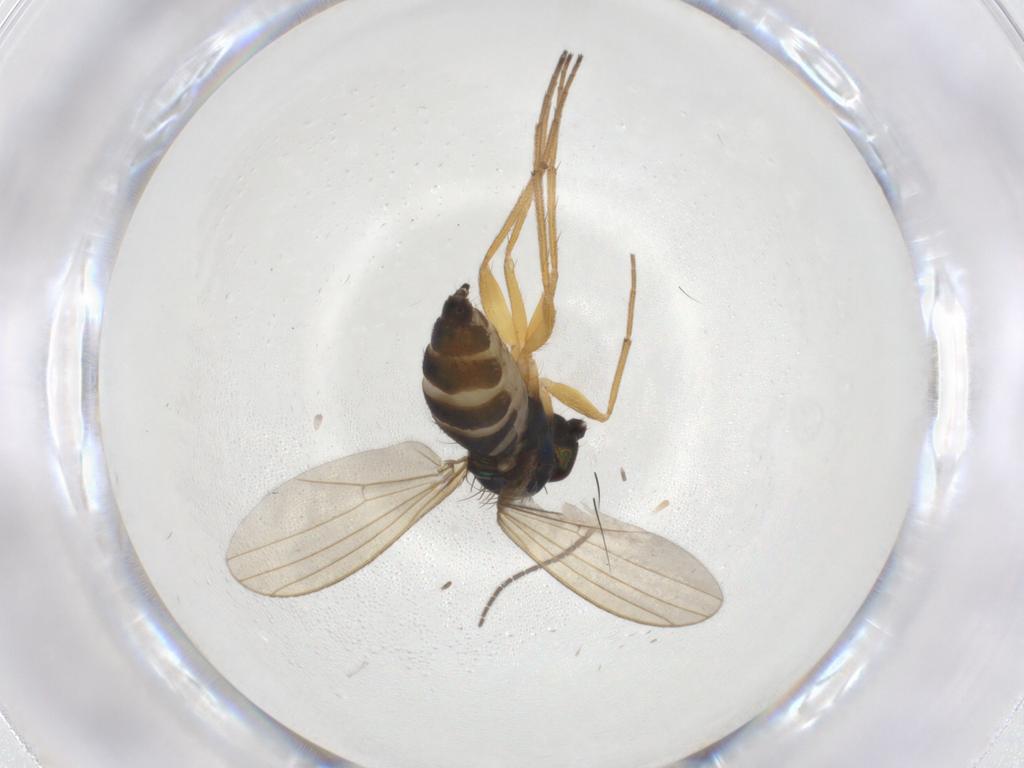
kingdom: Animalia
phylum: Arthropoda
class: Insecta
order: Diptera
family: Dolichopodidae
